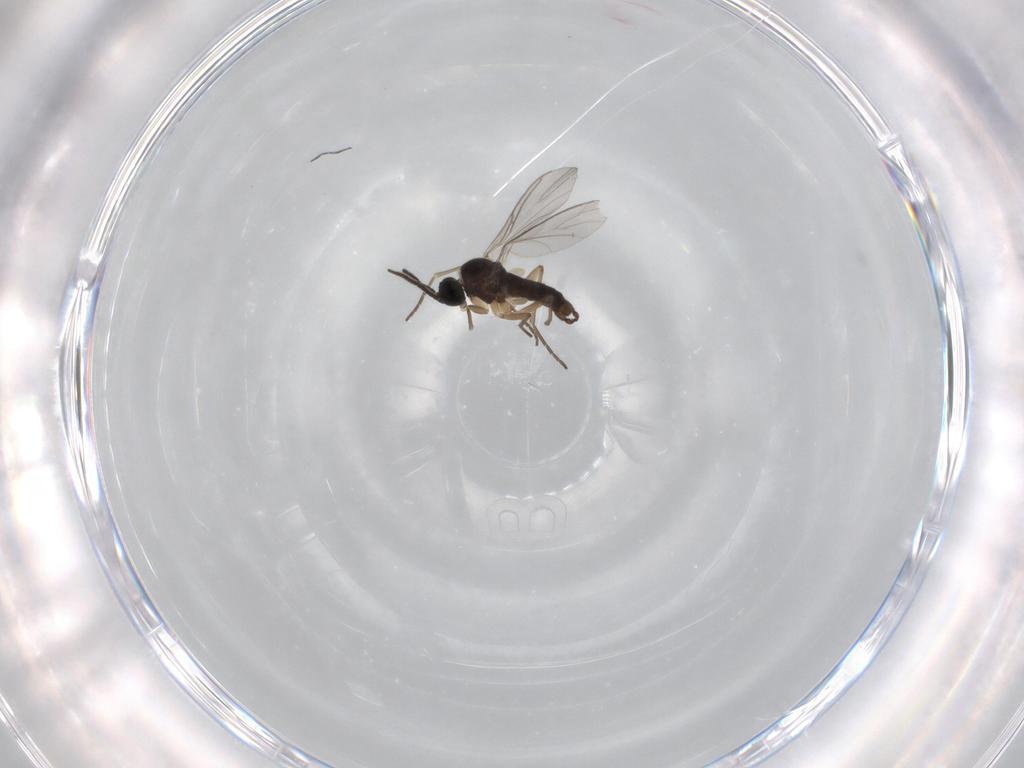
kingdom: Animalia
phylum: Arthropoda
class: Insecta
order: Diptera
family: Sciaridae
